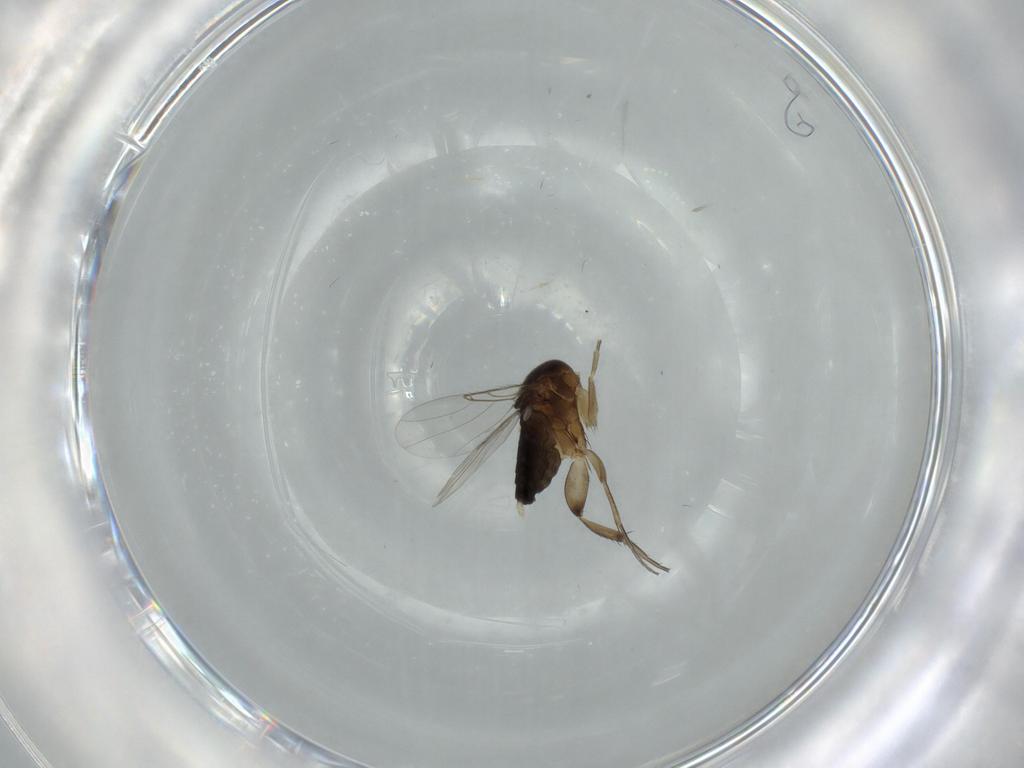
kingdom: Animalia
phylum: Arthropoda
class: Insecta
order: Diptera
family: Phoridae
